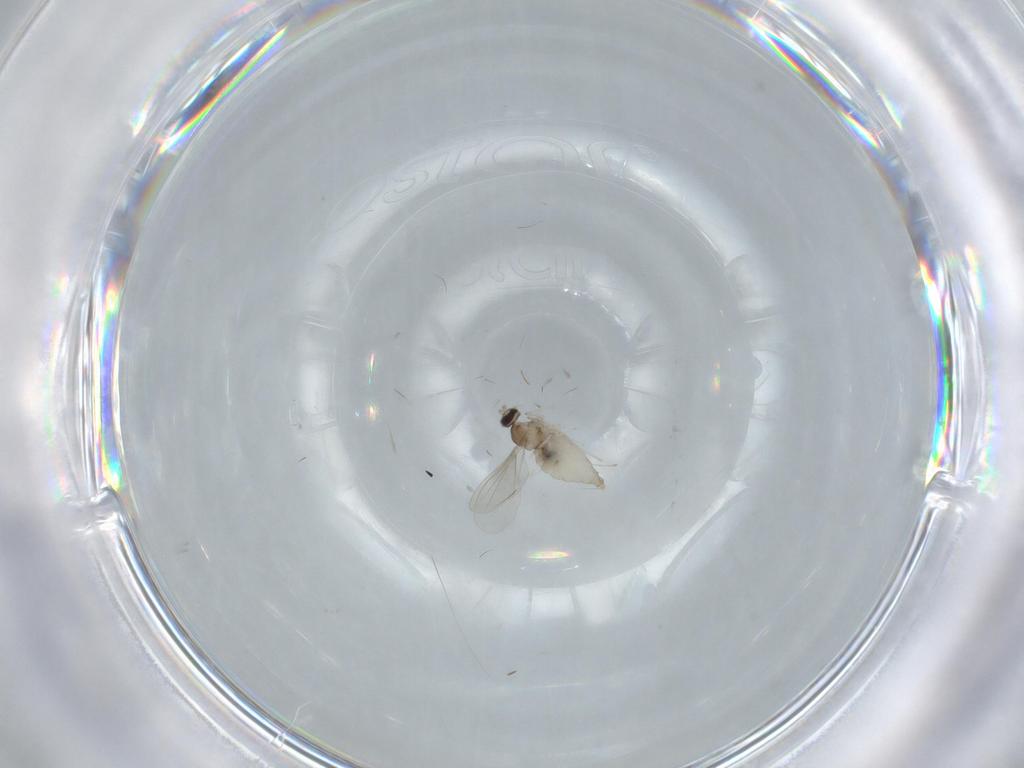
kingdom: Animalia
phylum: Arthropoda
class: Insecta
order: Diptera
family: Cecidomyiidae
